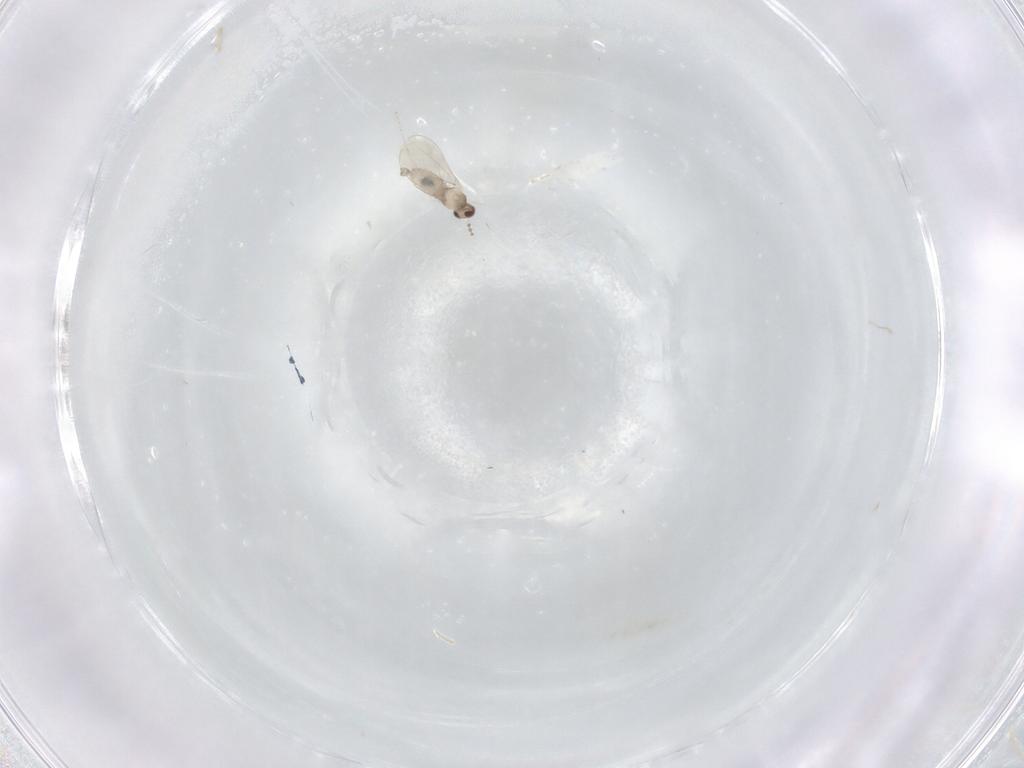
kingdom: Animalia
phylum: Arthropoda
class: Insecta
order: Diptera
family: Cecidomyiidae
